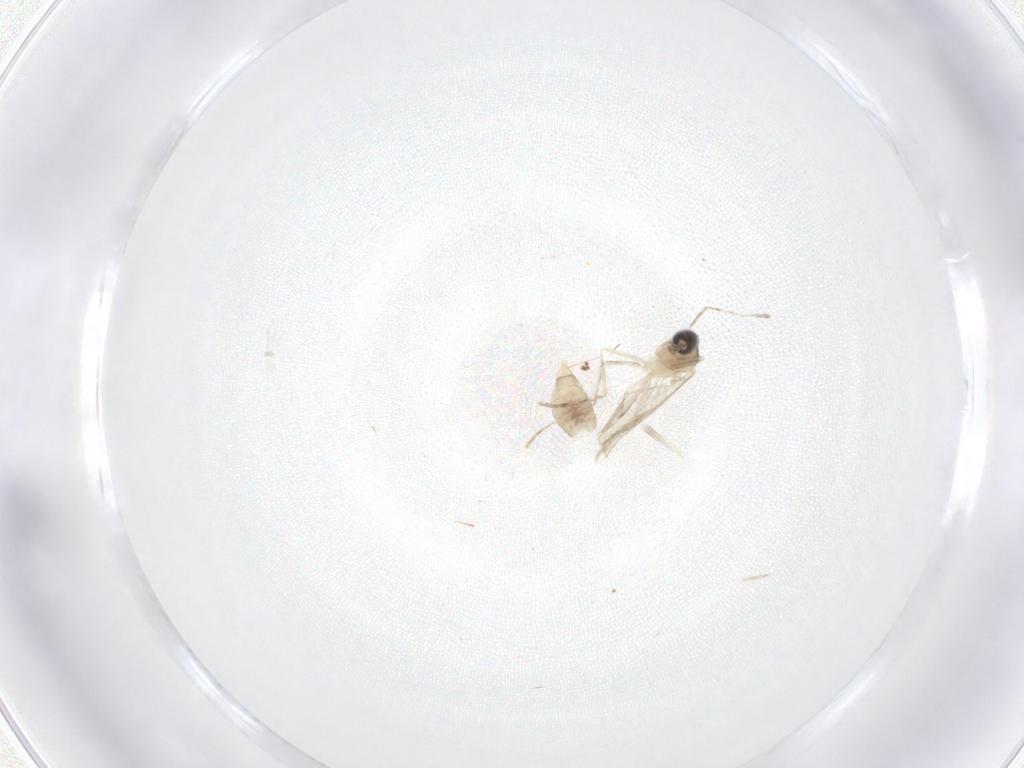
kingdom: Animalia
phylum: Arthropoda
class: Insecta
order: Diptera
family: Cecidomyiidae
